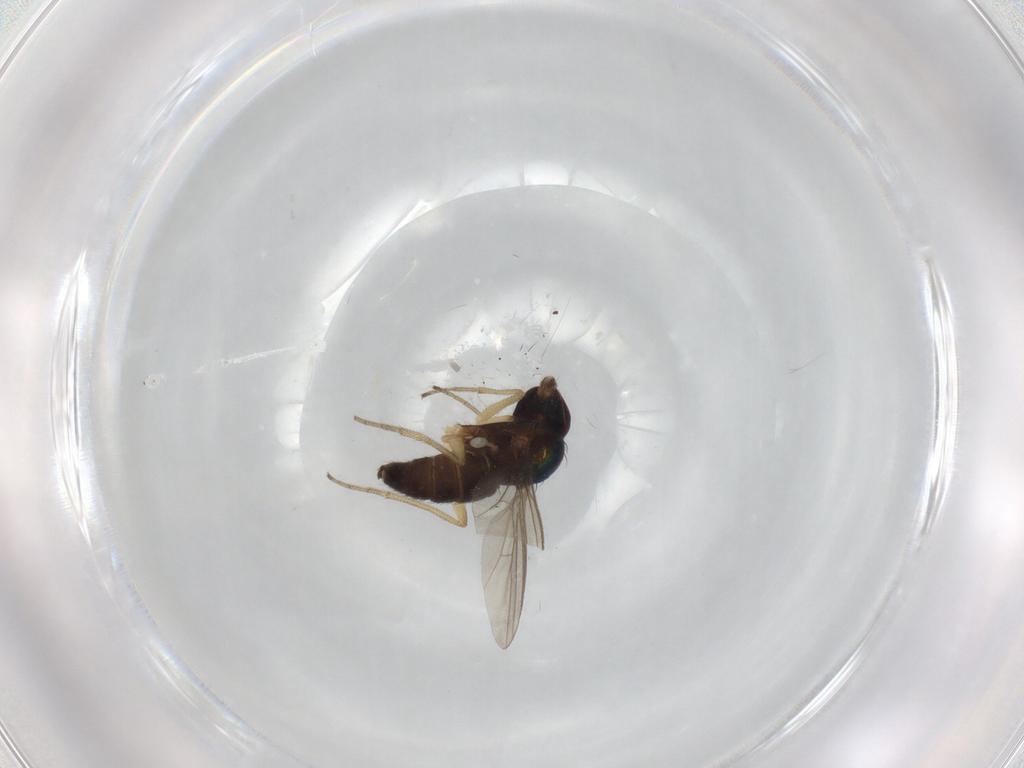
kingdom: Animalia
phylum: Arthropoda
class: Insecta
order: Diptera
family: Dolichopodidae
